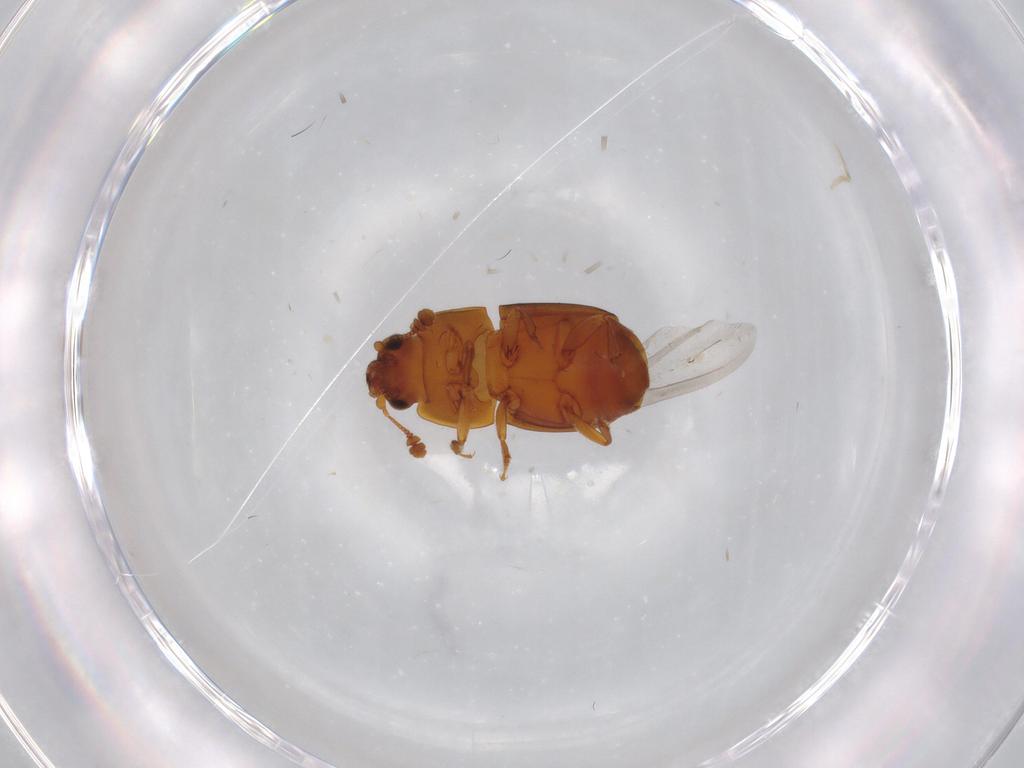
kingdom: Animalia
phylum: Arthropoda
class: Insecta
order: Coleoptera
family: Nitidulidae
